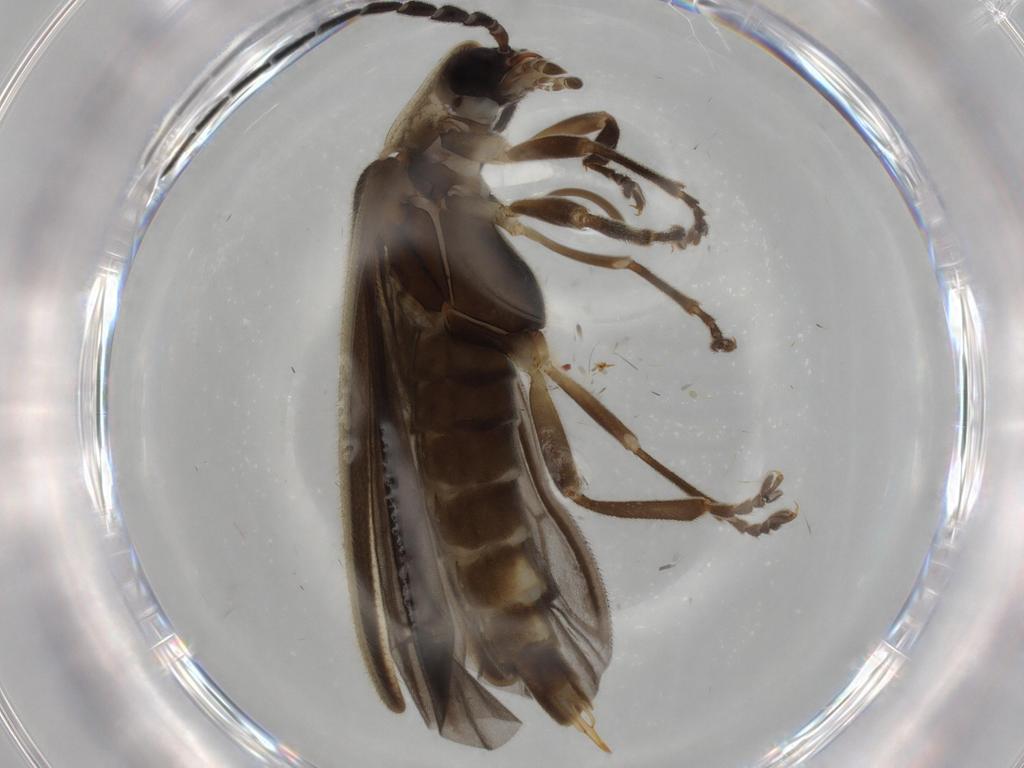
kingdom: Animalia
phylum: Arthropoda
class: Insecta
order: Coleoptera
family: Lampyridae
